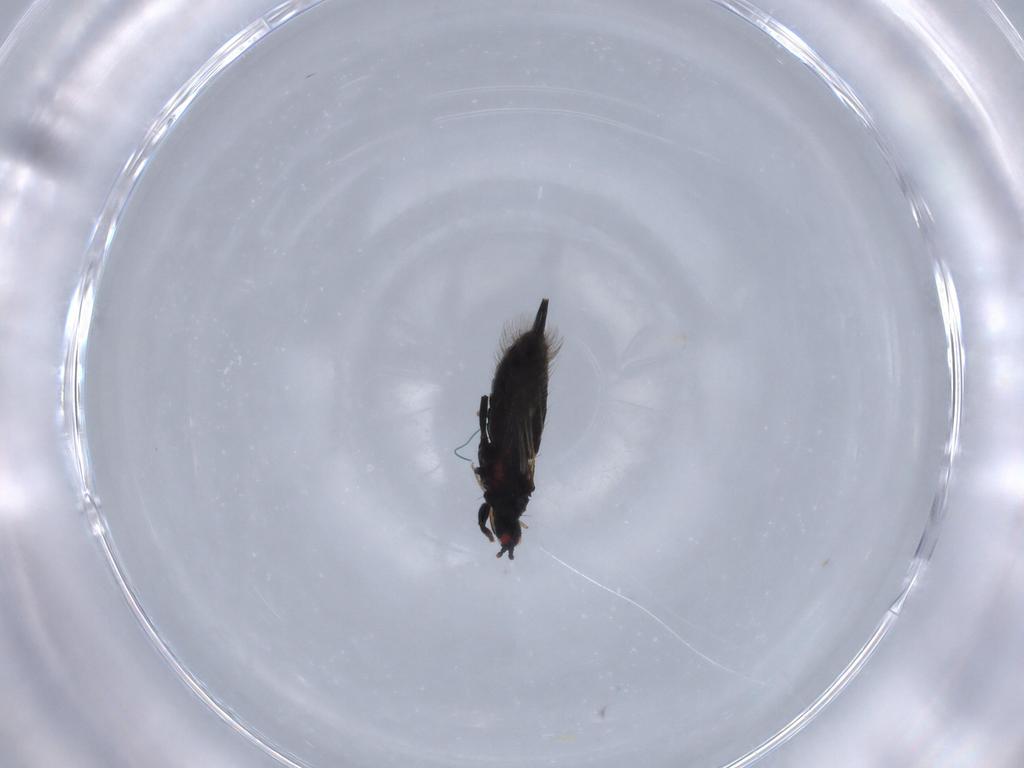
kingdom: Animalia
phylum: Arthropoda
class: Insecta
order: Thysanoptera
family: Phlaeothripidae
